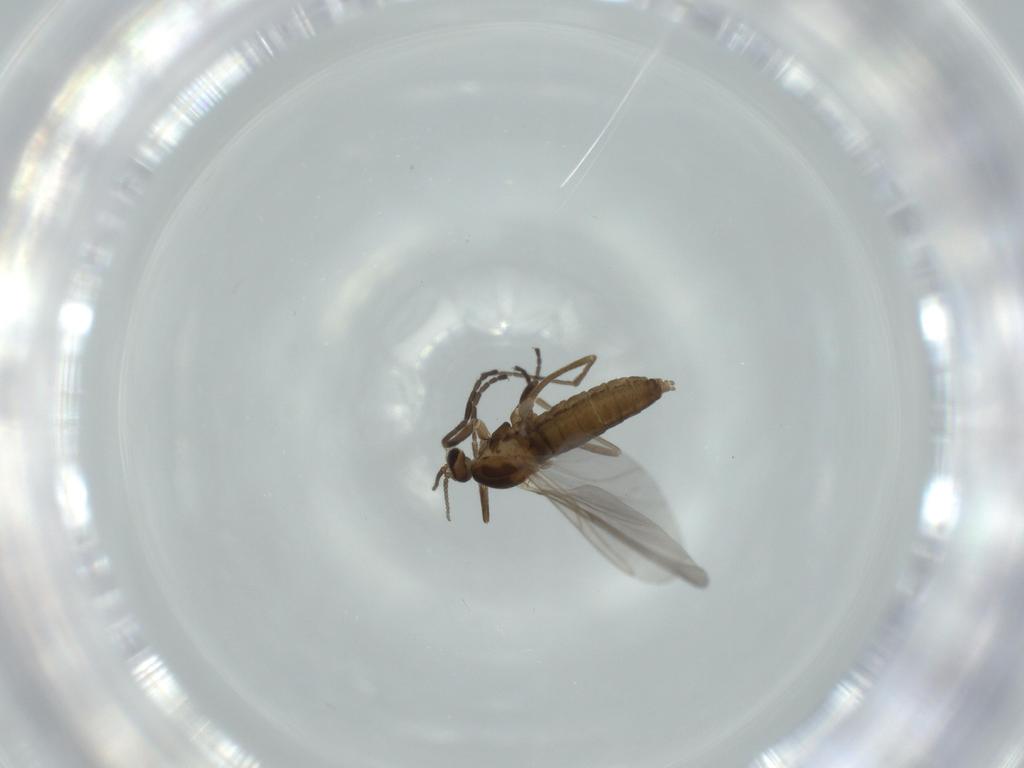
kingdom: Animalia
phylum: Arthropoda
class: Insecta
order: Diptera
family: Cecidomyiidae
